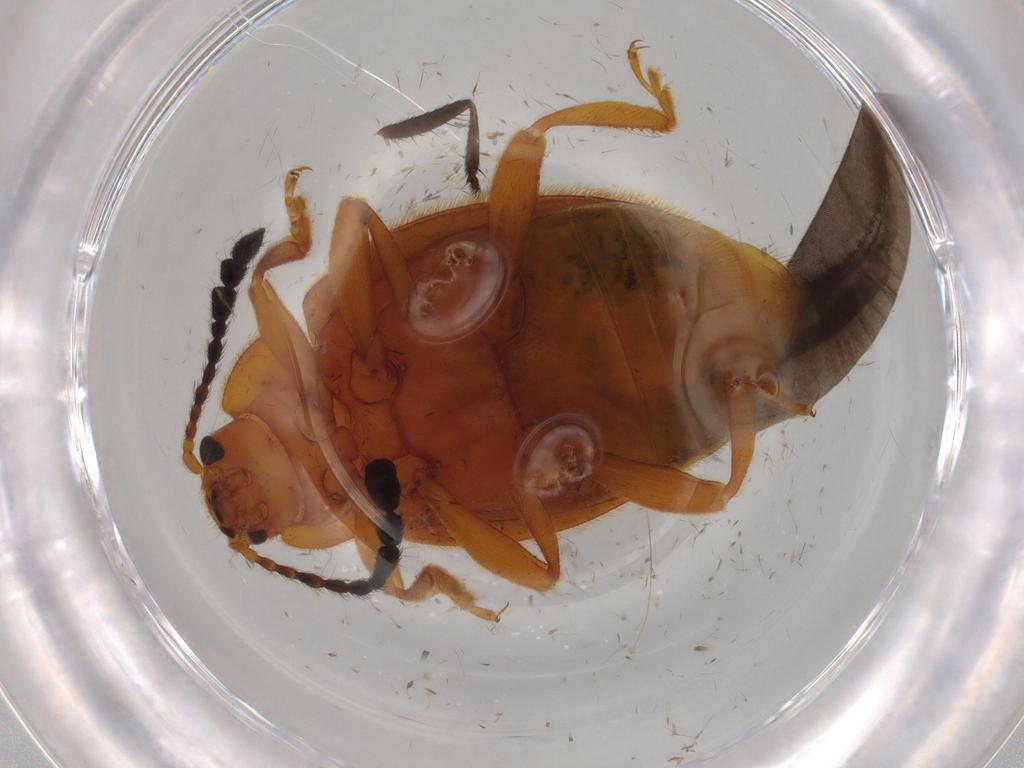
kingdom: Animalia
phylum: Arthropoda
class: Insecta
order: Coleoptera
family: Endomychidae
